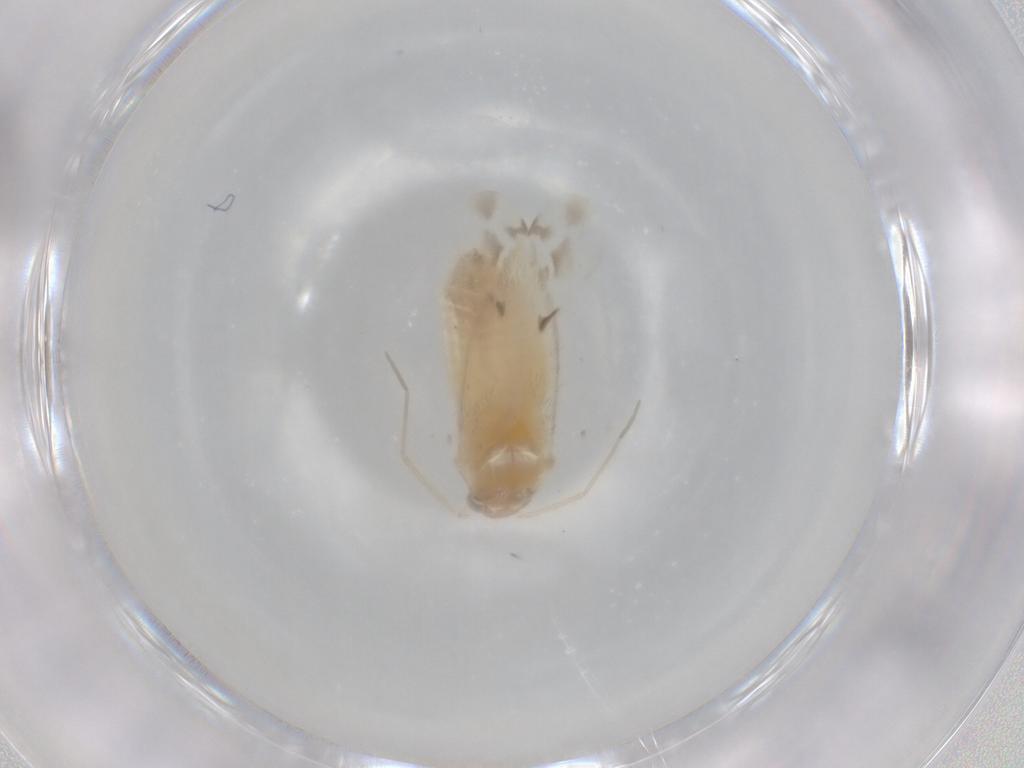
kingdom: Animalia
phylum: Arthropoda
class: Insecta
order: Hemiptera
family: Miridae
